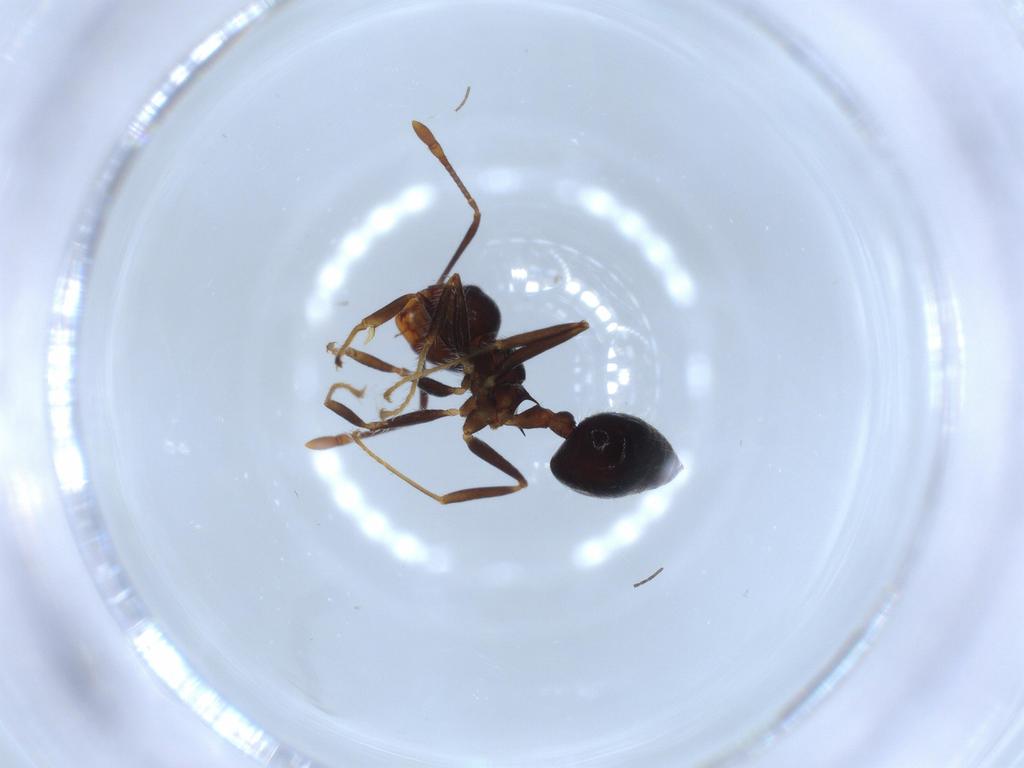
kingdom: Animalia
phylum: Arthropoda
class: Insecta
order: Hymenoptera
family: Formicidae
